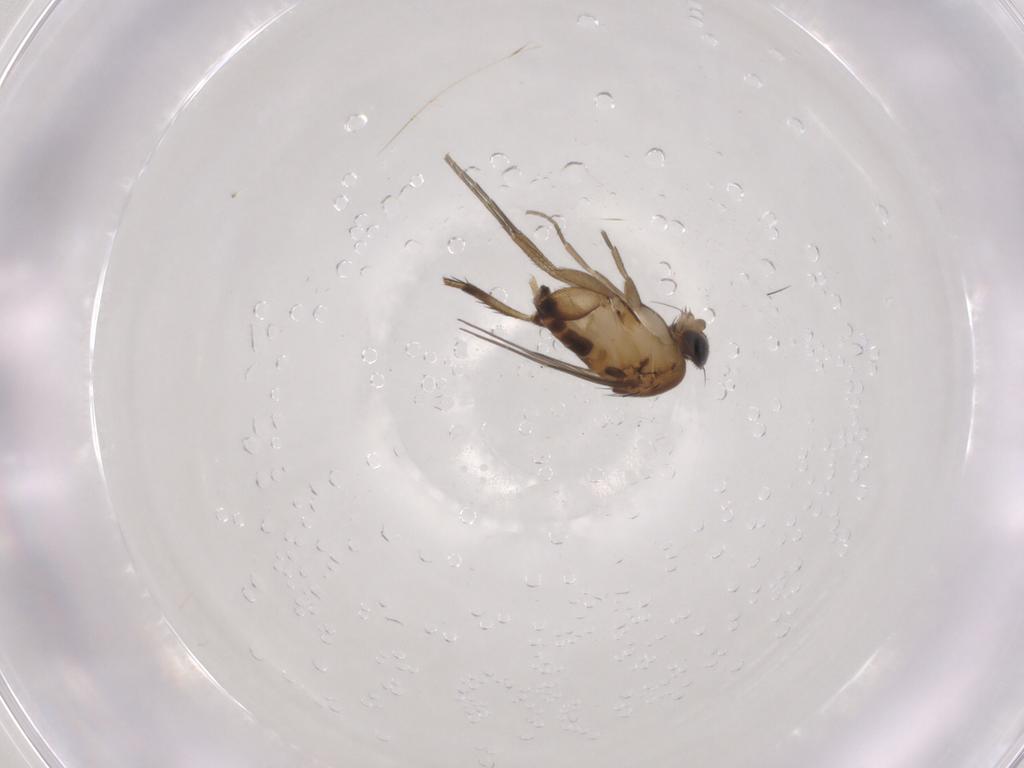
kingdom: Animalia
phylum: Arthropoda
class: Insecta
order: Diptera
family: Phoridae
